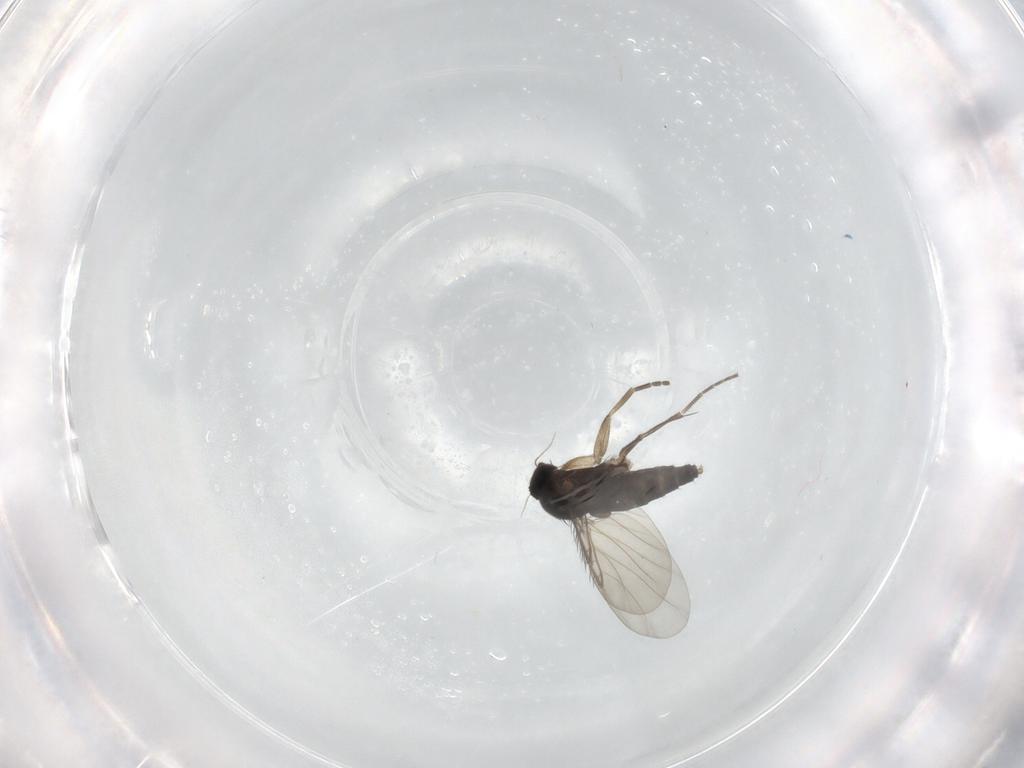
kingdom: Animalia
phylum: Arthropoda
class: Insecta
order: Diptera
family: Phoridae
